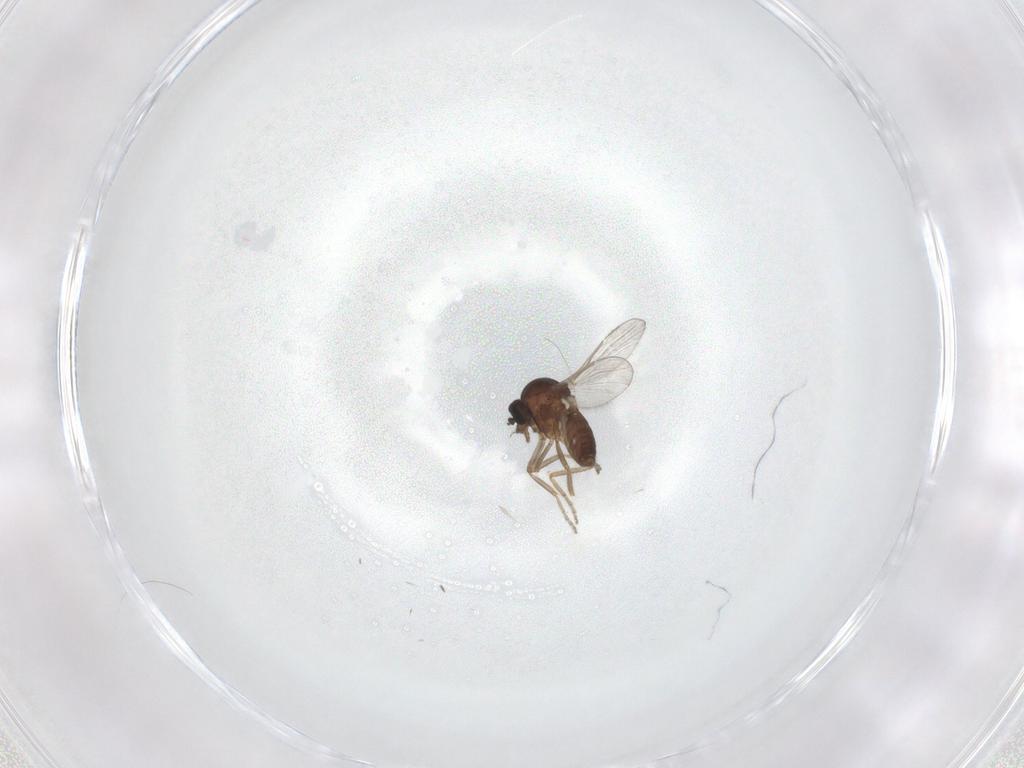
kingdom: Animalia
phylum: Arthropoda
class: Insecta
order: Diptera
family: Ceratopogonidae
